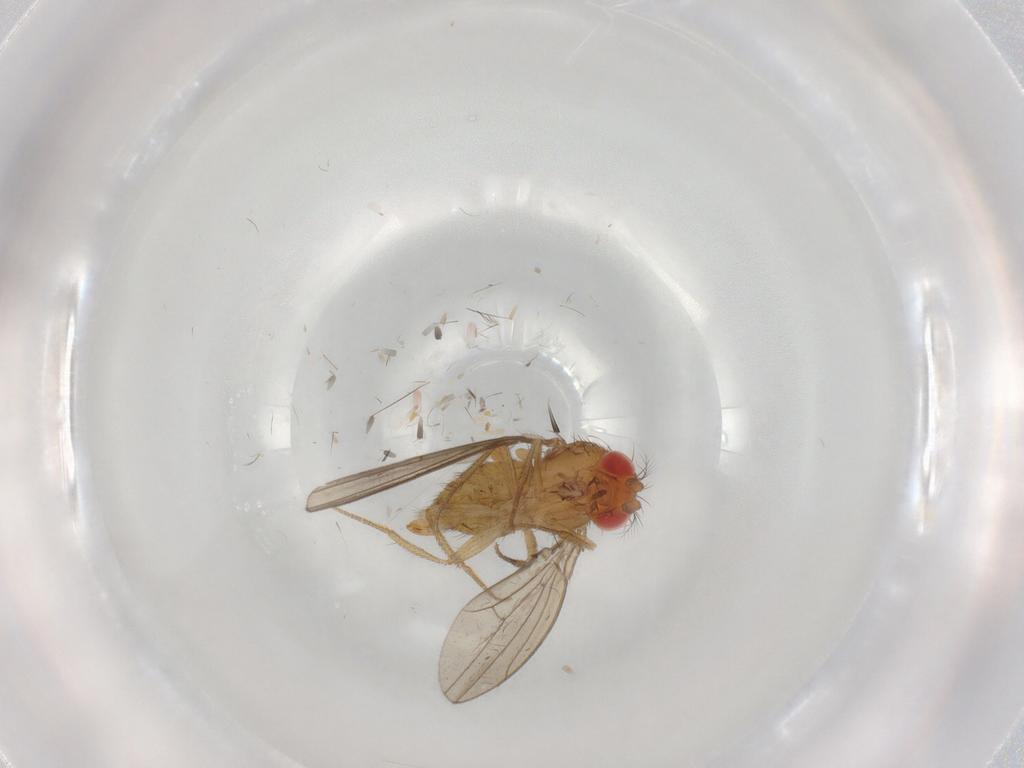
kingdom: Animalia
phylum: Arthropoda
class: Insecta
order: Diptera
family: Drosophilidae
